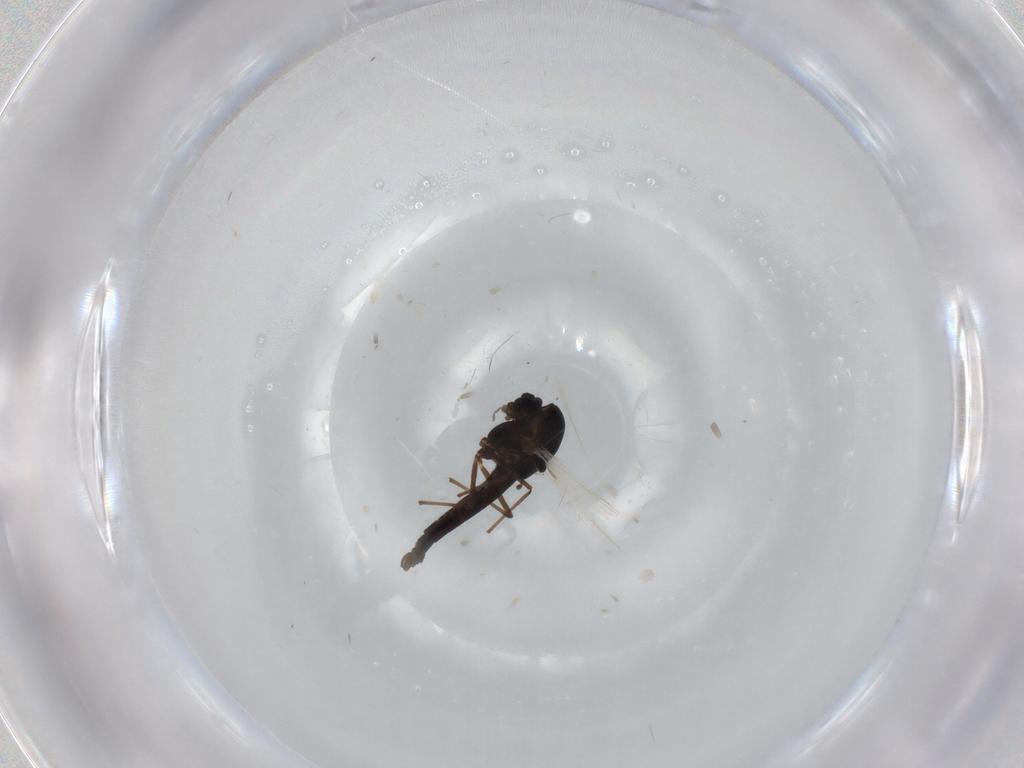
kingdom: Animalia
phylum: Arthropoda
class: Insecta
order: Diptera
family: Chironomidae
